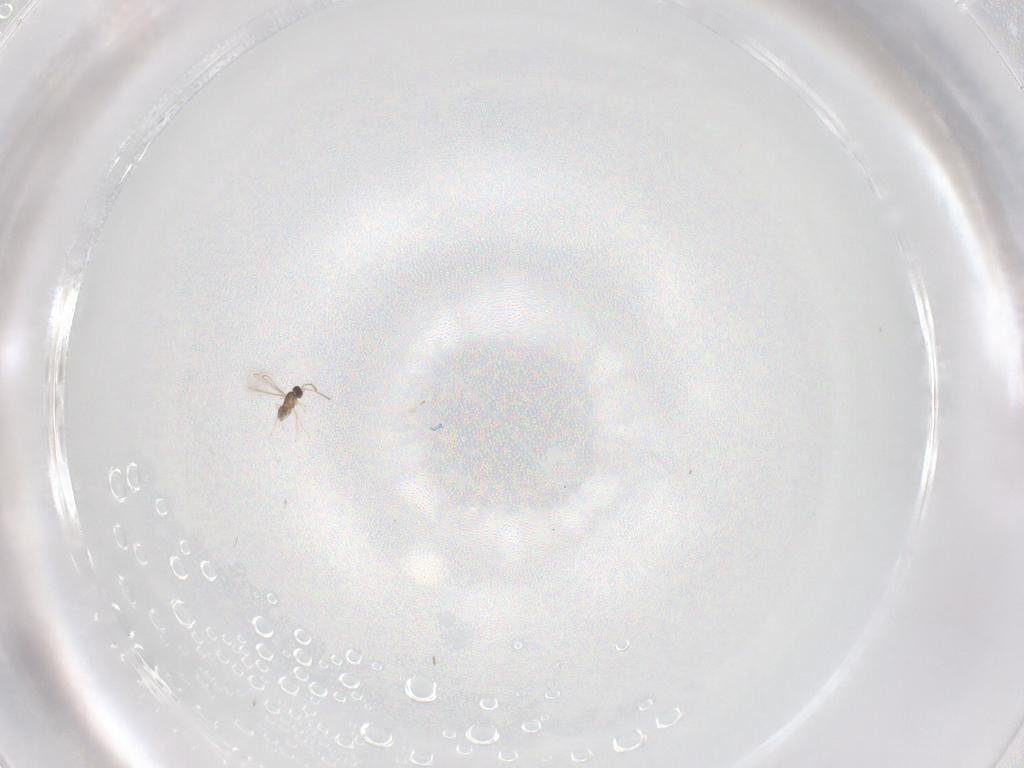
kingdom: Animalia
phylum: Arthropoda
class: Insecta
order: Hymenoptera
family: Diapriidae
